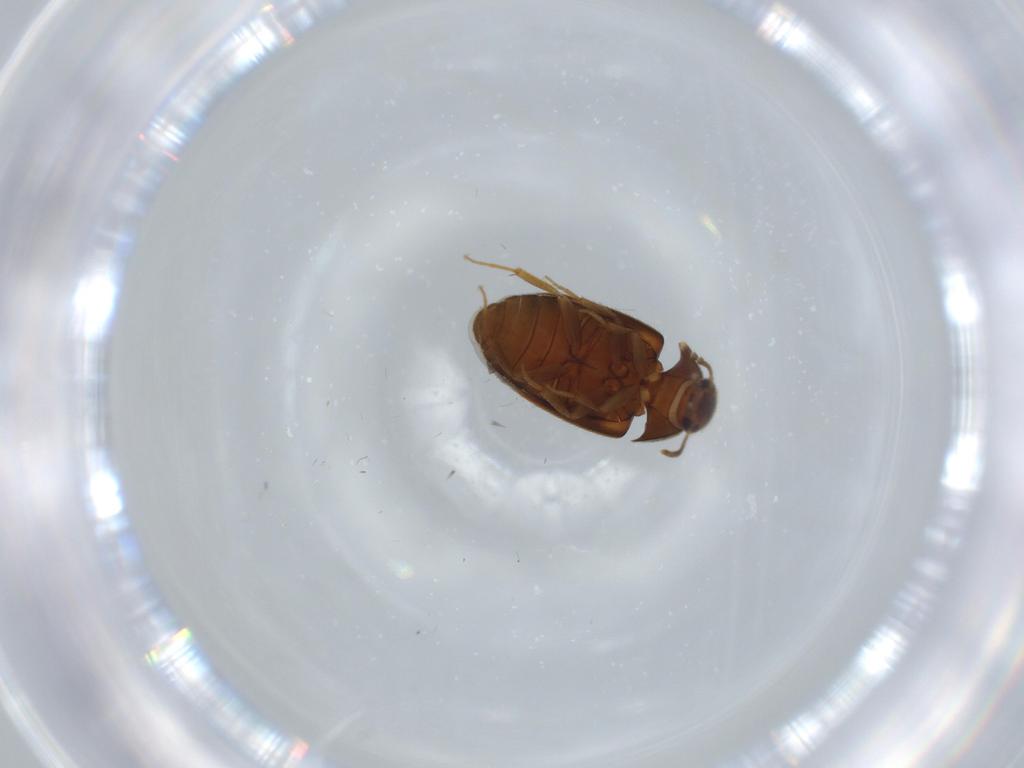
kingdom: Animalia
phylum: Arthropoda
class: Insecta
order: Coleoptera
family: Mycetophagidae
